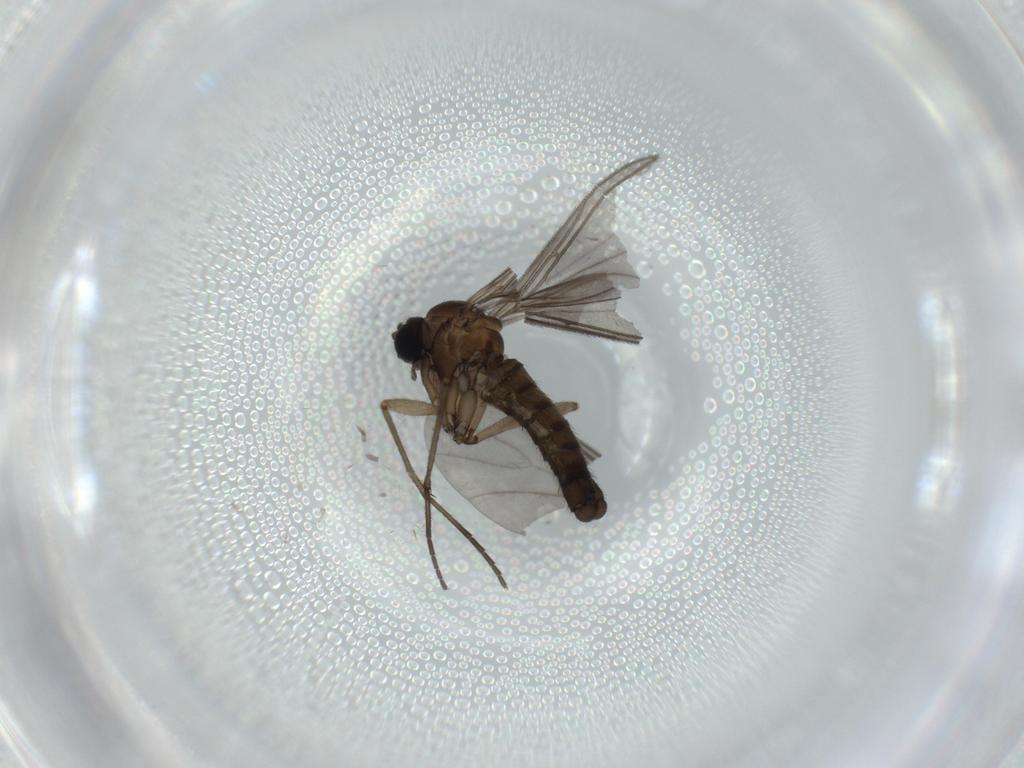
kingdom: Animalia
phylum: Arthropoda
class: Insecta
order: Diptera
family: Sciaridae
